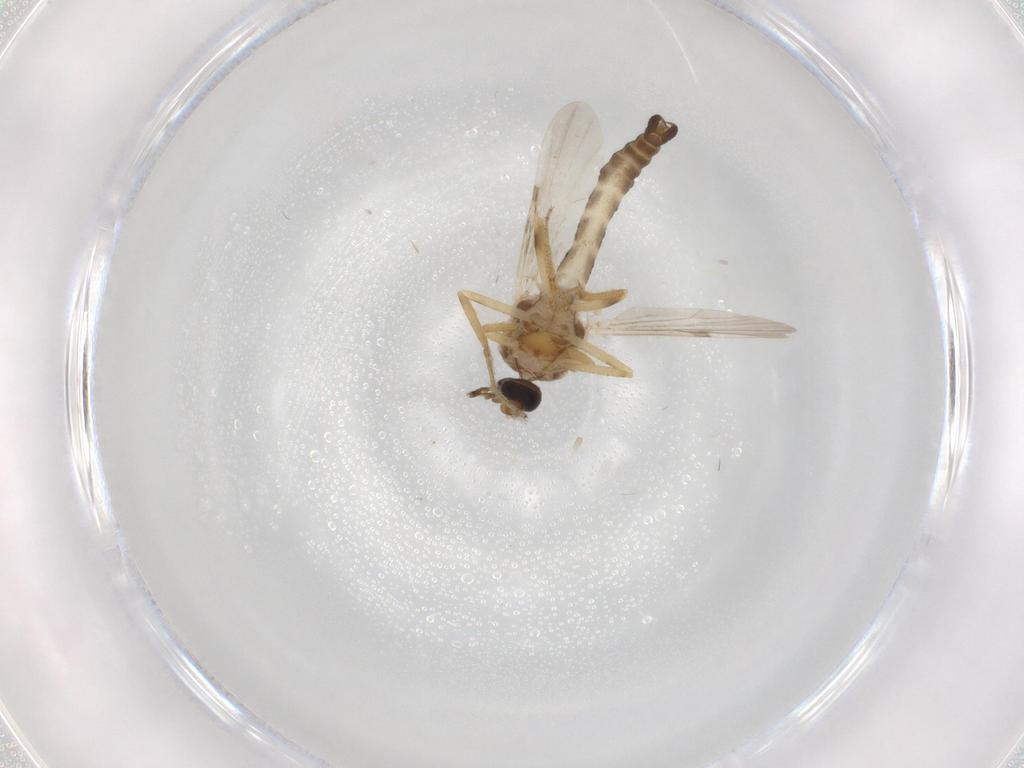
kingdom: Animalia
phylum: Arthropoda
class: Insecta
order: Diptera
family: Ceratopogonidae
